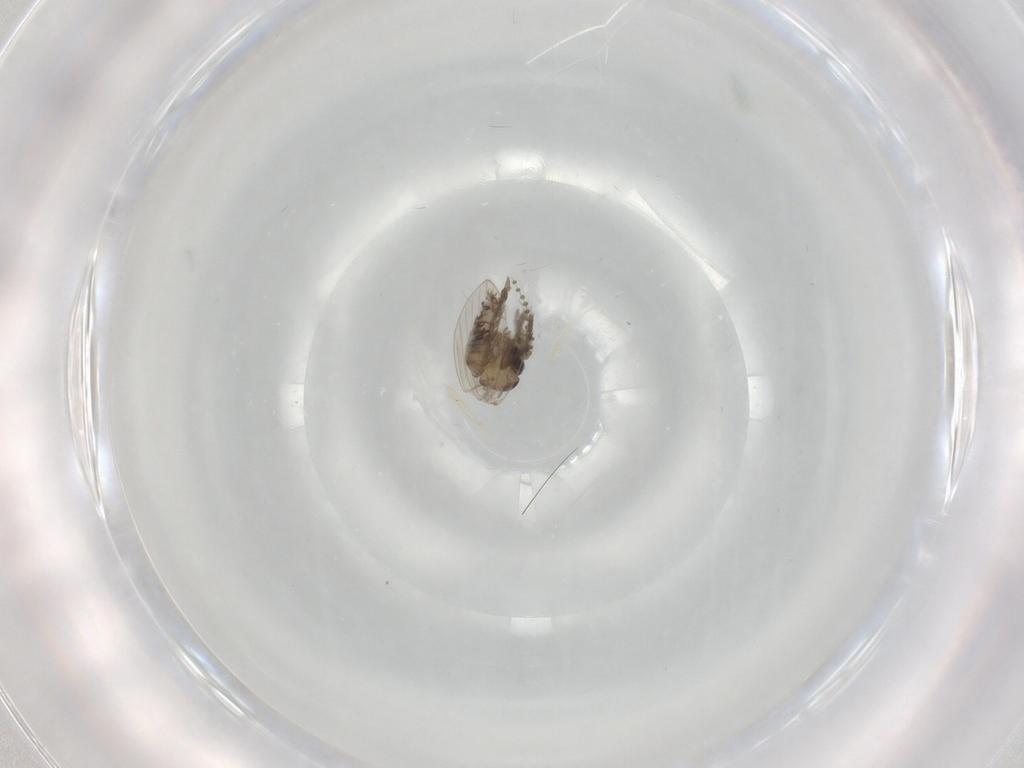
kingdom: Animalia
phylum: Arthropoda
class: Insecta
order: Diptera
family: Psychodidae
